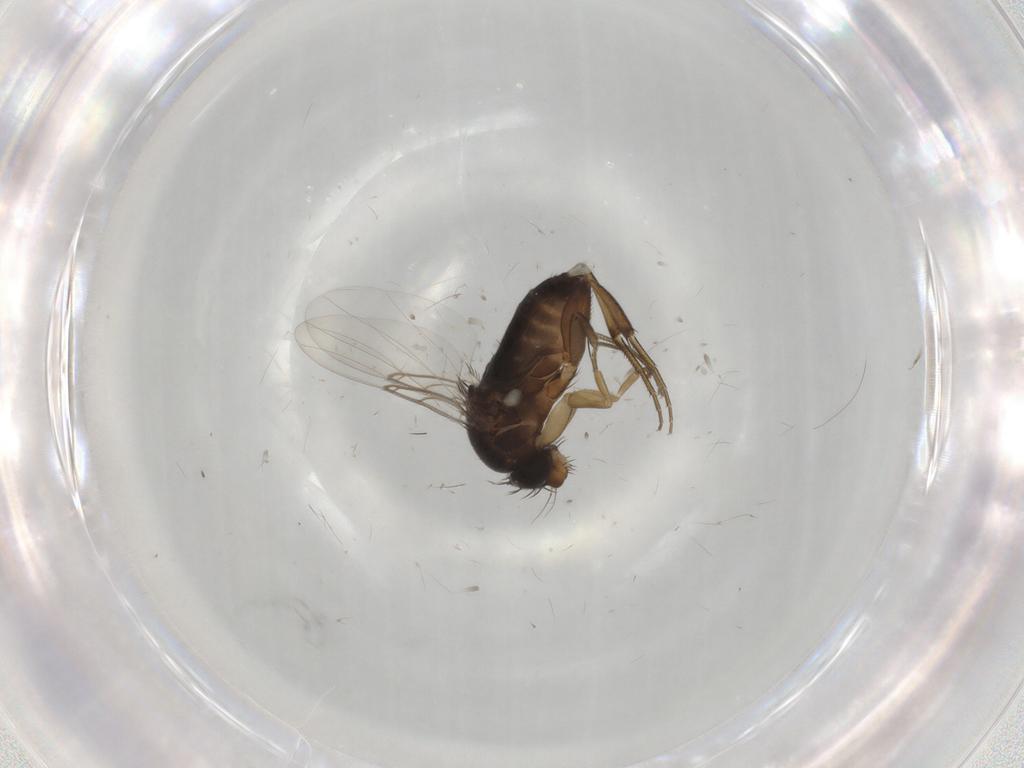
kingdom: Animalia
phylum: Arthropoda
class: Insecta
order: Diptera
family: Phoridae
